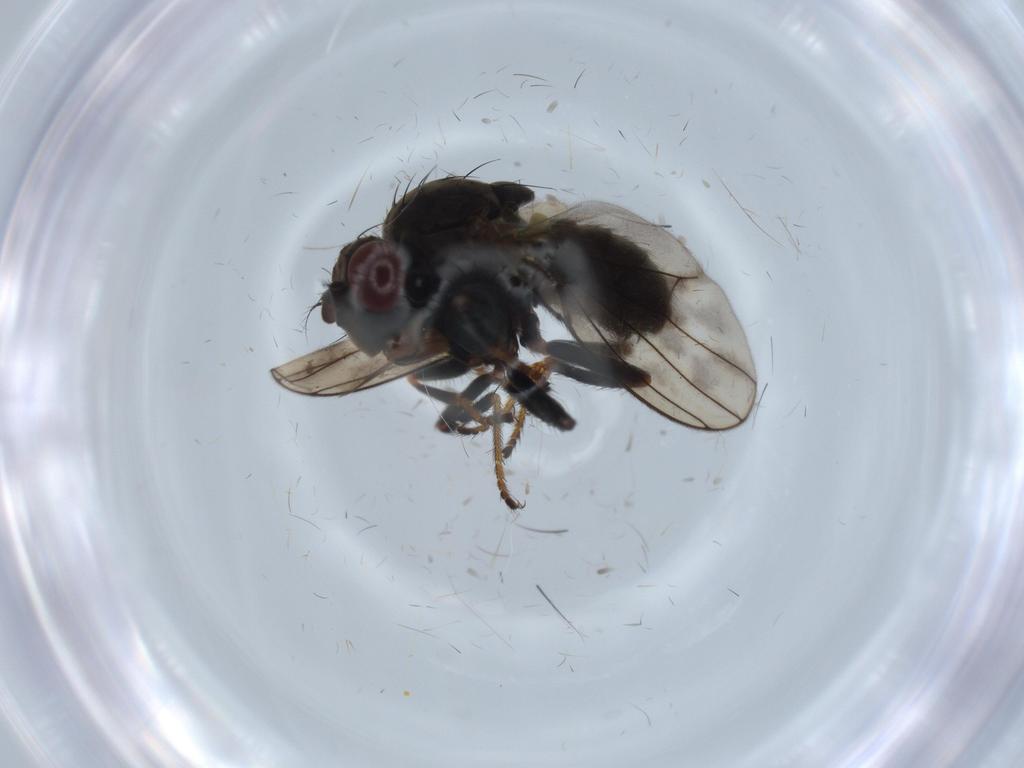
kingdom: Animalia
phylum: Arthropoda
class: Insecta
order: Diptera
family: Ephydridae
